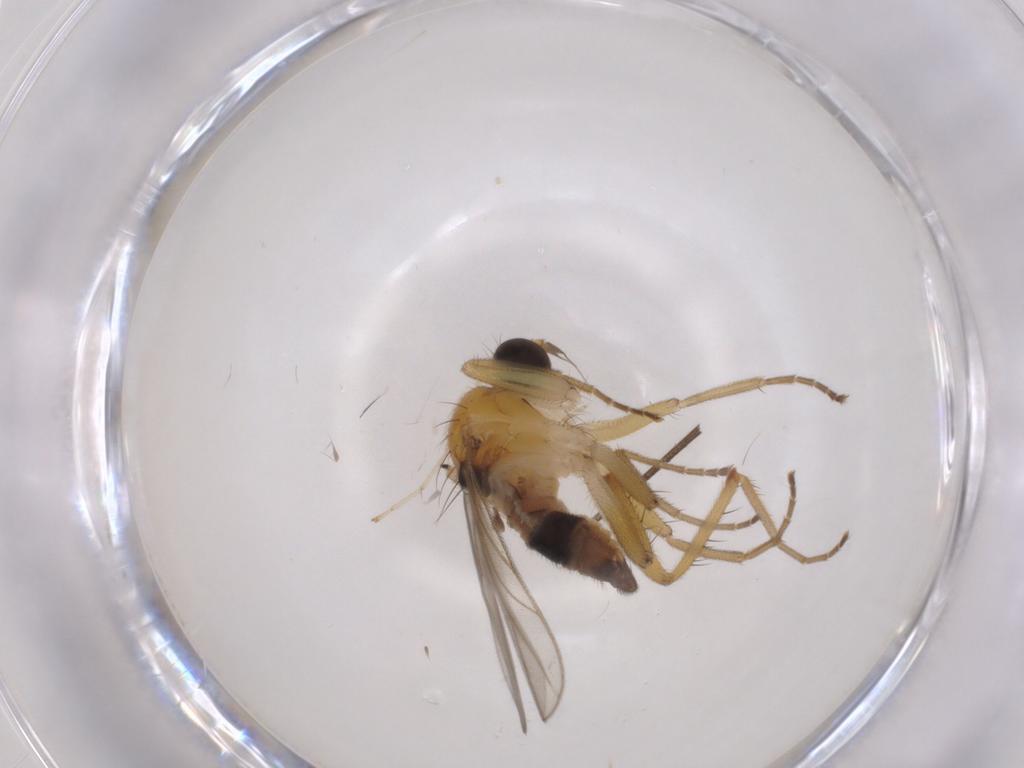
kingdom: Animalia
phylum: Arthropoda
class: Insecta
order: Diptera
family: Hybotidae
